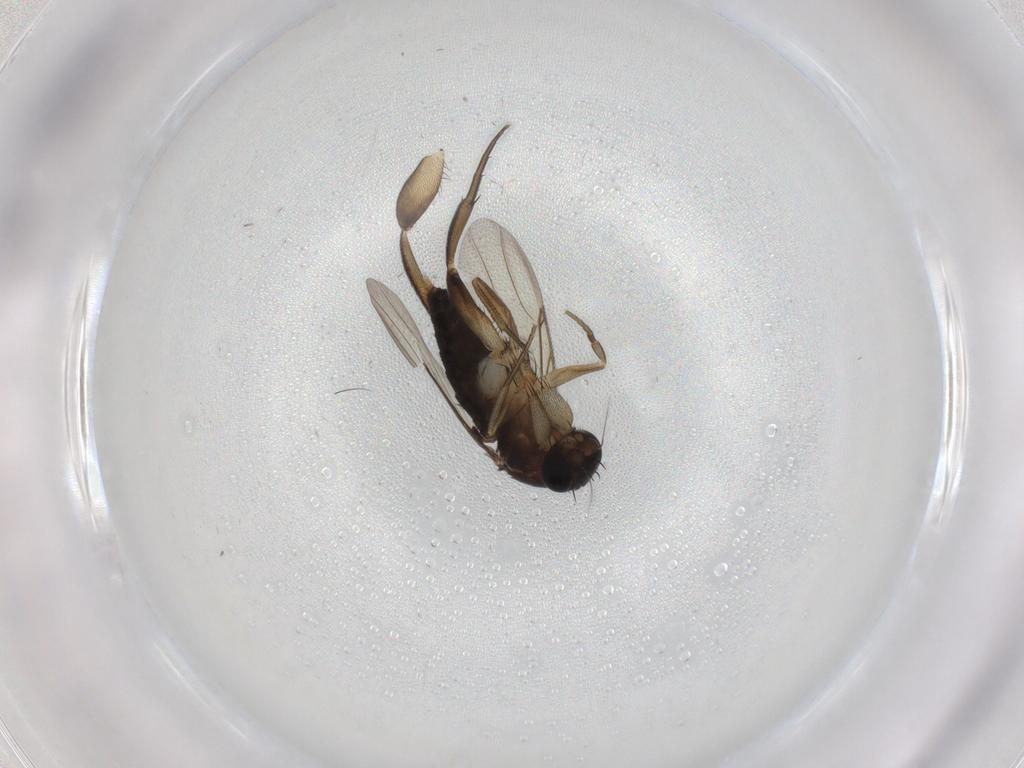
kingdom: Animalia
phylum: Arthropoda
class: Insecta
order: Diptera
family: Phoridae
